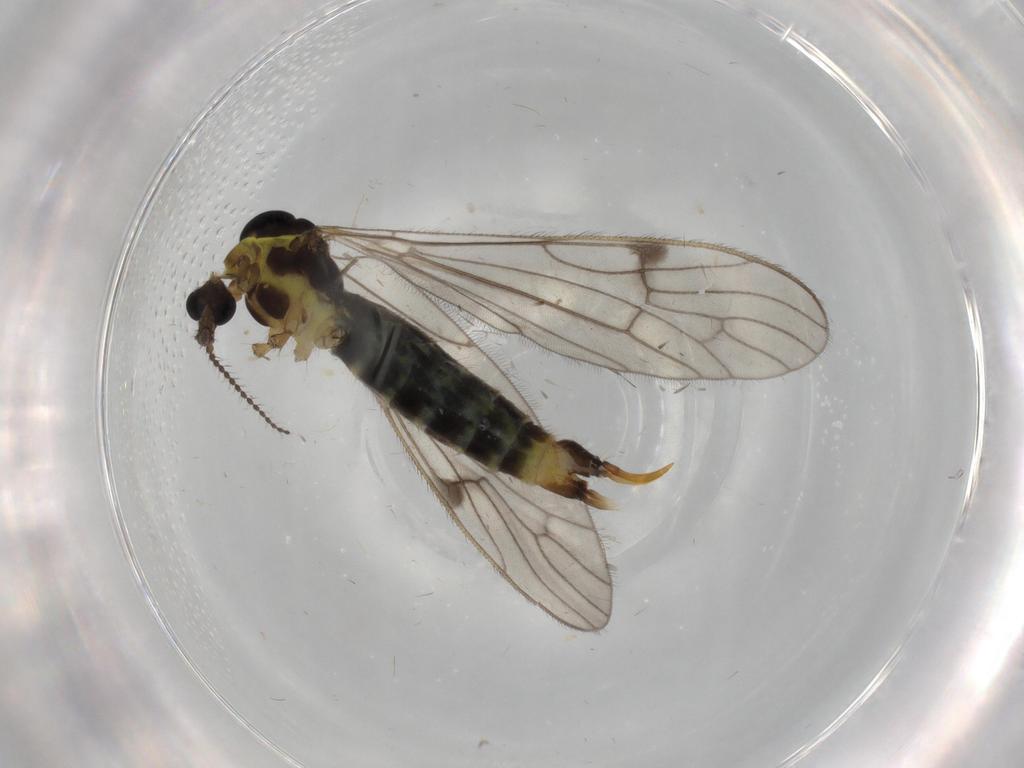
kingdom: Animalia
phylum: Arthropoda
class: Insecta
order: Diptera
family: Limoniidae
